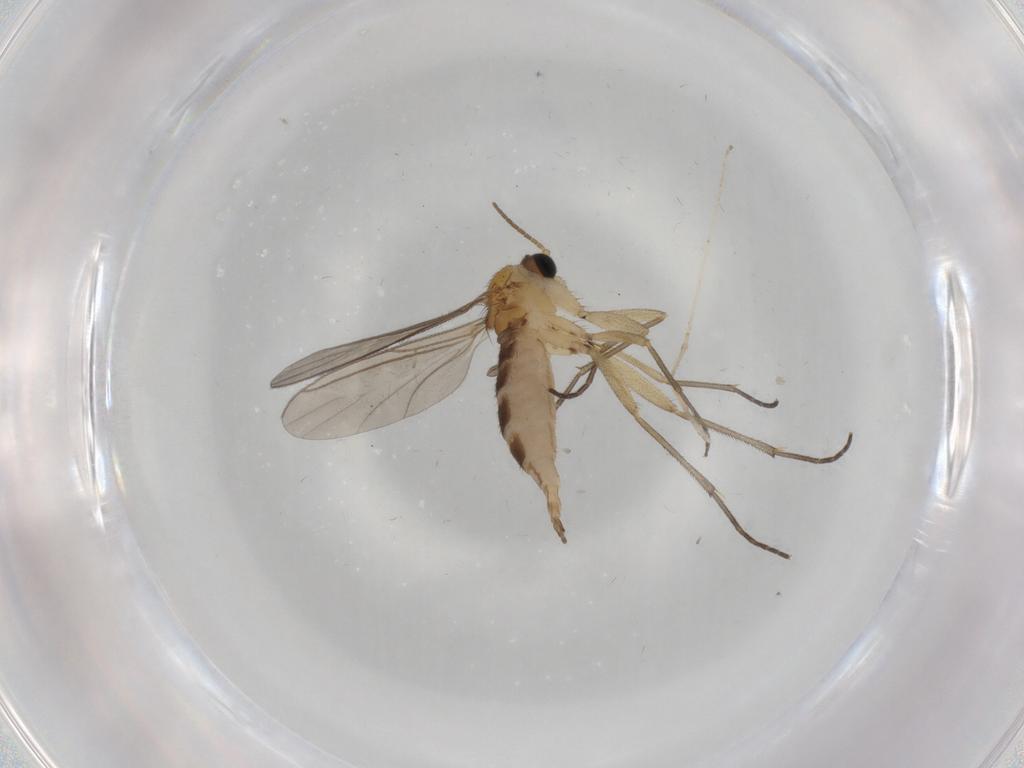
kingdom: Animalia
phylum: Arthropoda
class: Insecta
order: Diptera
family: Cecidomyiidae
